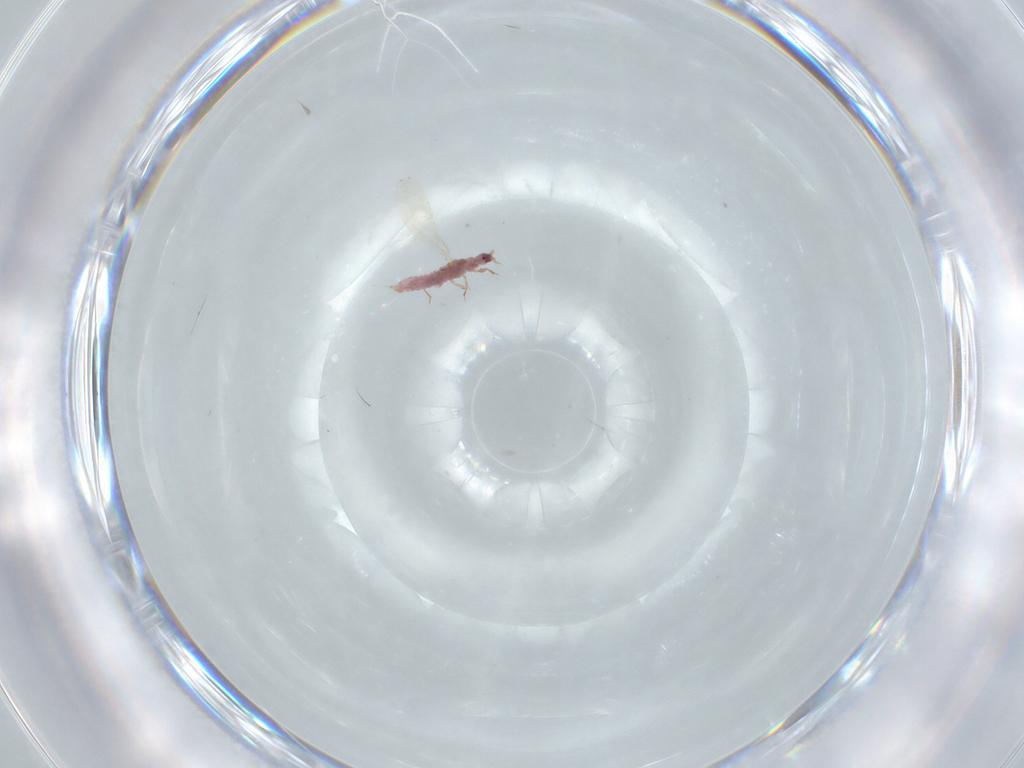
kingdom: Animalia
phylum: Arthropoda
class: Insecta
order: Hemiptera
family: Pseudococcidae
